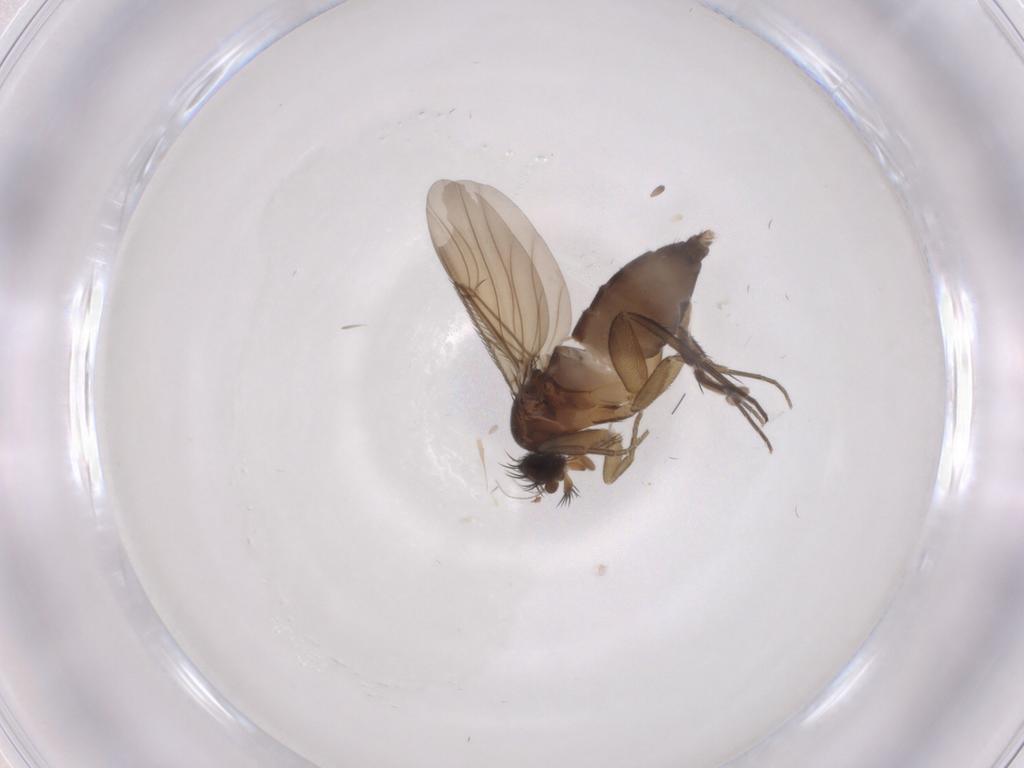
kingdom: Animalia
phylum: Arthropoda
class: Insecta
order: Diptera
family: Phoridae
